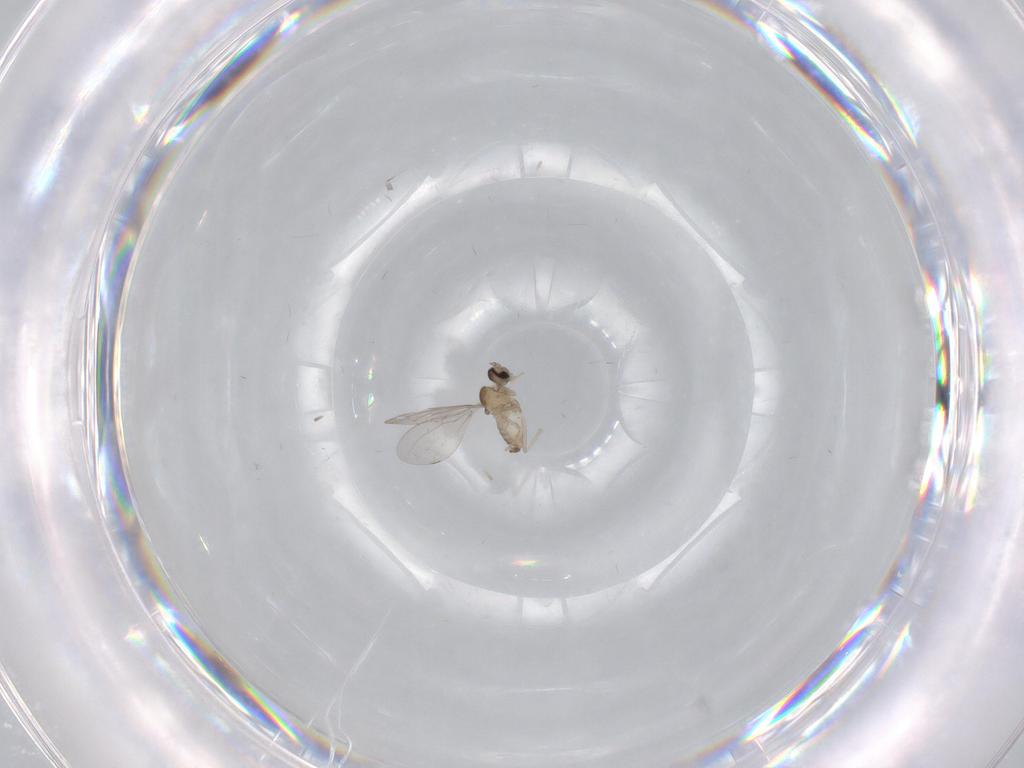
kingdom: Animalia
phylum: Arthropoda
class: Insecta
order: Diptera
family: Cecidomyiidae
